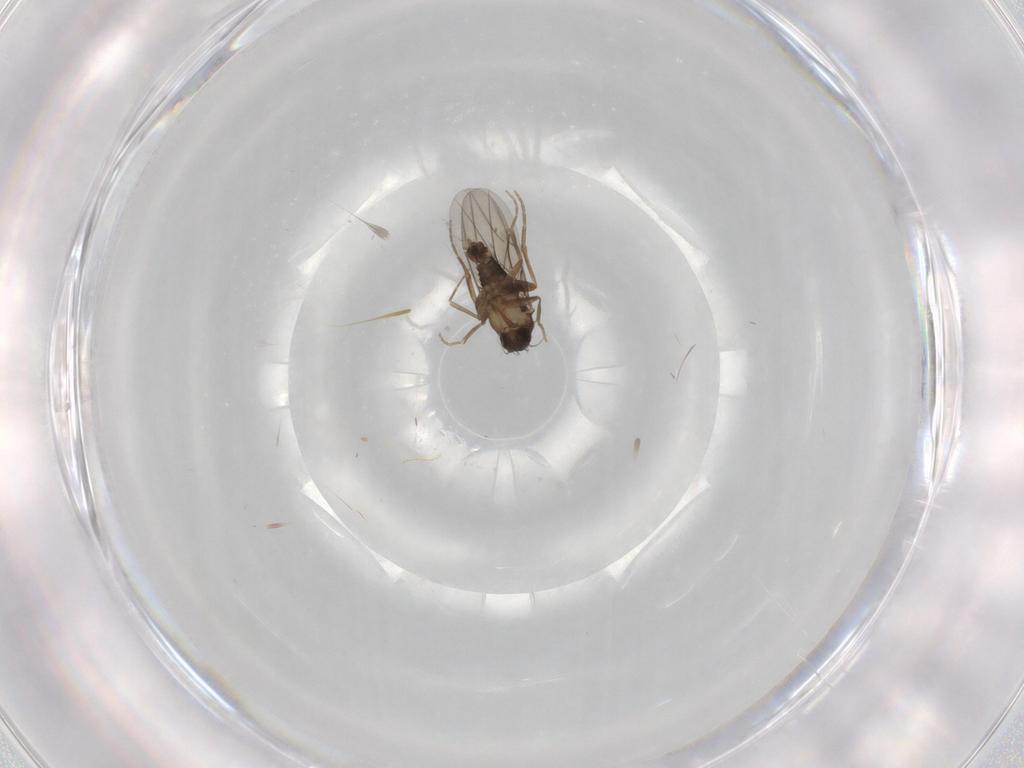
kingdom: Animalia
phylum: Arthropoda
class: Insecta
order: Diptera
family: Phoridae
